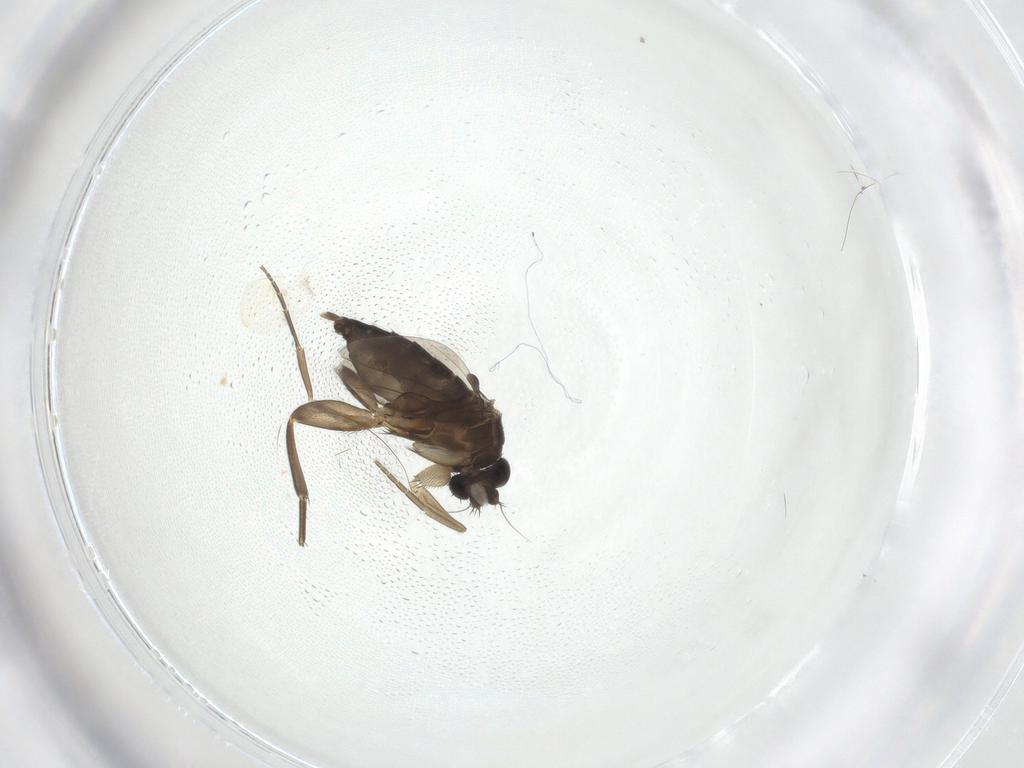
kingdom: Animalia
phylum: Arthropoda
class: Insecta
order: Diptera
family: Phoridae
